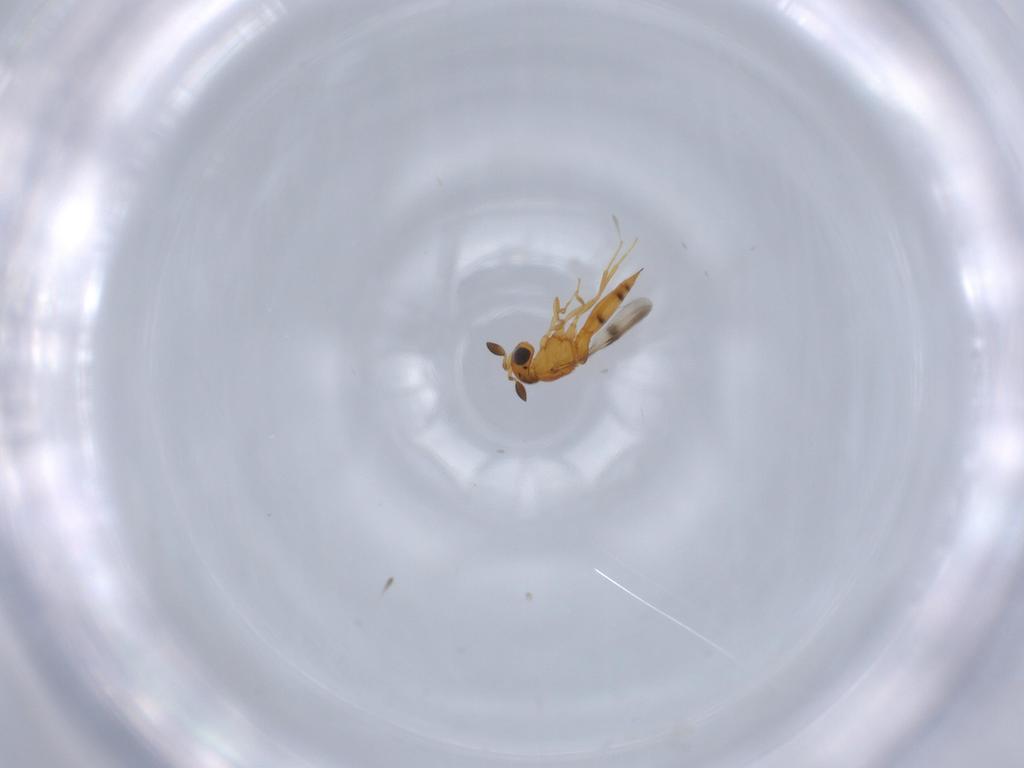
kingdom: Animalia
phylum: Arthropoda
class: Insecta
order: Hymenoptera
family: Scelionidae
